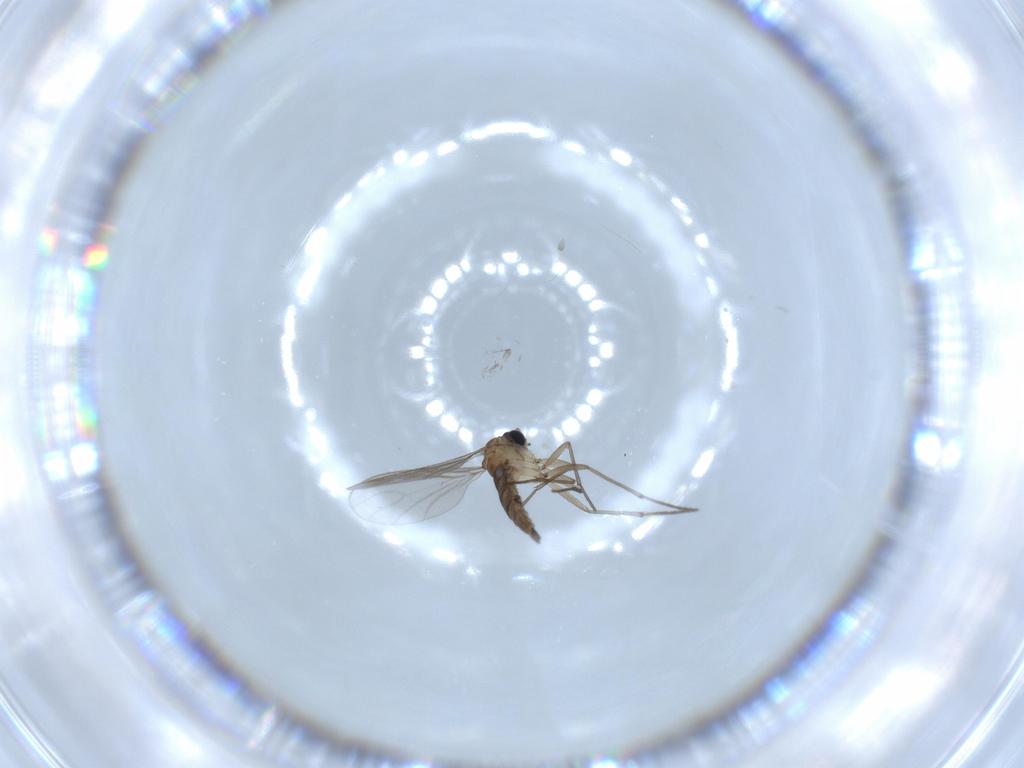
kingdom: Animalia
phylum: Arthropoda
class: Insecta
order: Diptera
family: Sciaridae
